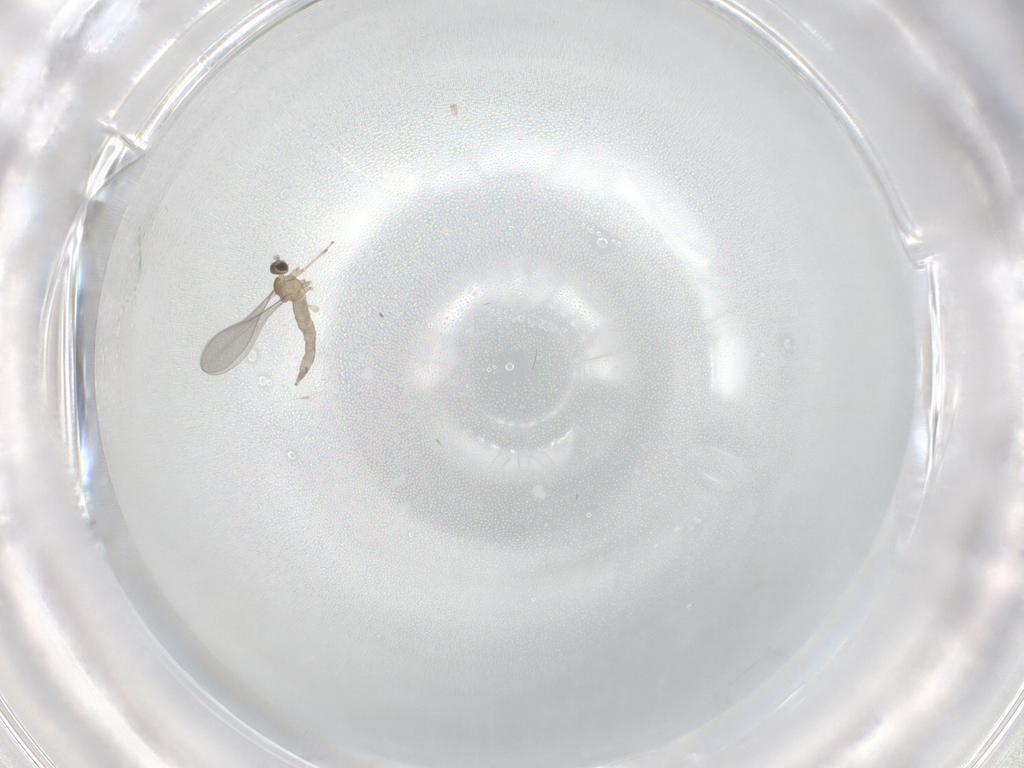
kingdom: Animalia
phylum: Arthropoda
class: Insecta
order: Diptera
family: Cecidomyiidae
